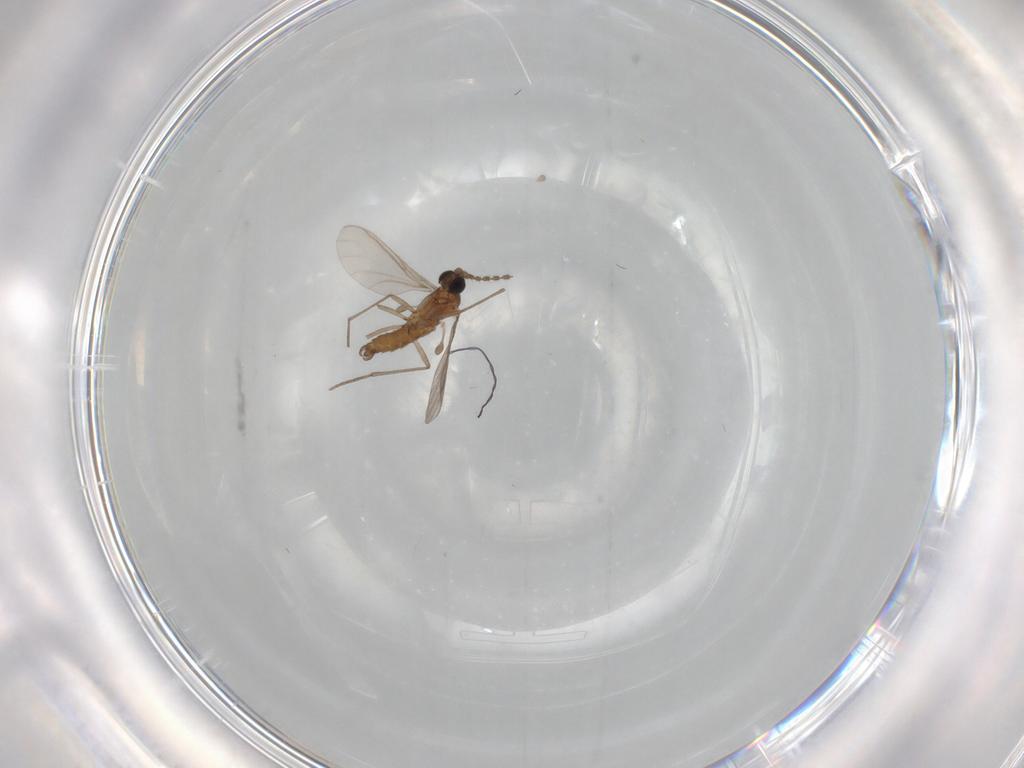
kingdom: Animalia
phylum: Arthropoda
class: Insecta
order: Diptera
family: Sciaridae
